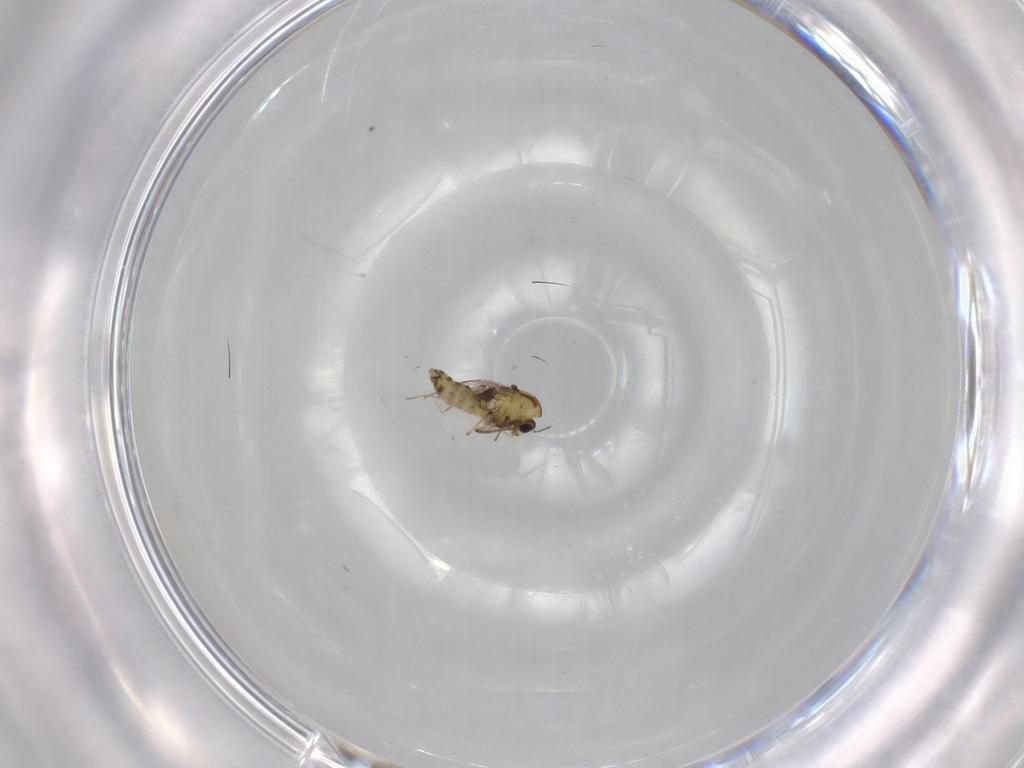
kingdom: Animalia
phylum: Arthropoda
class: Insecta
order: Diptera
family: Chironomidae
